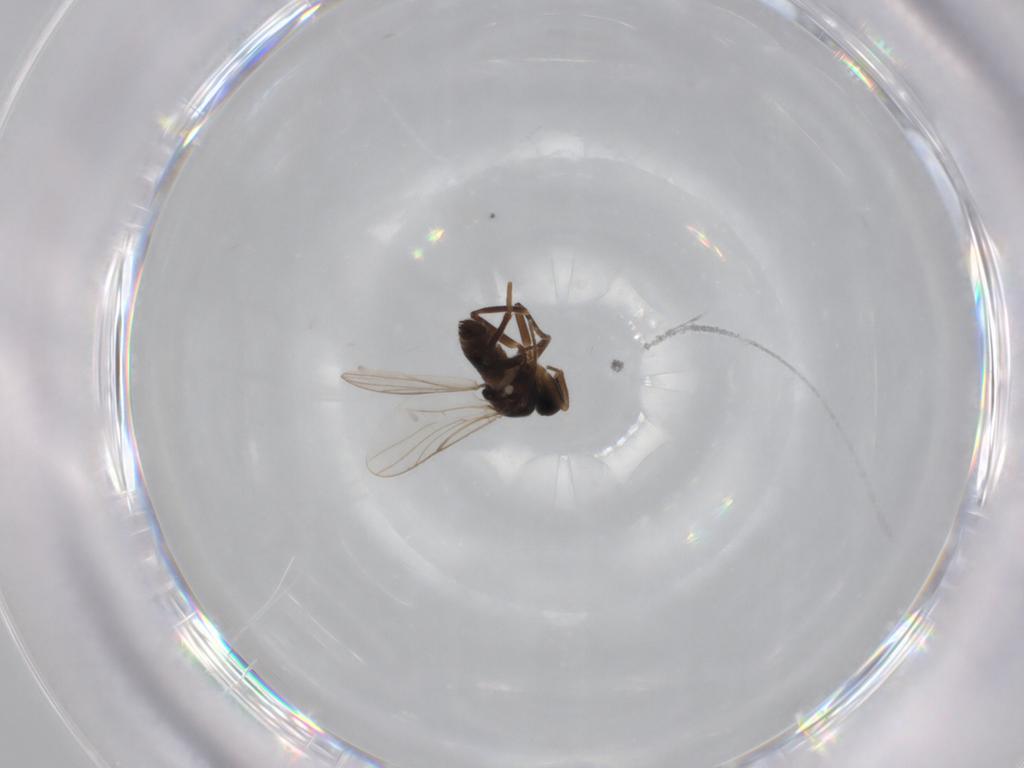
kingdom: Animalia
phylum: Arthropoda
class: Insecta
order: Diptera
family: Hybotidae
